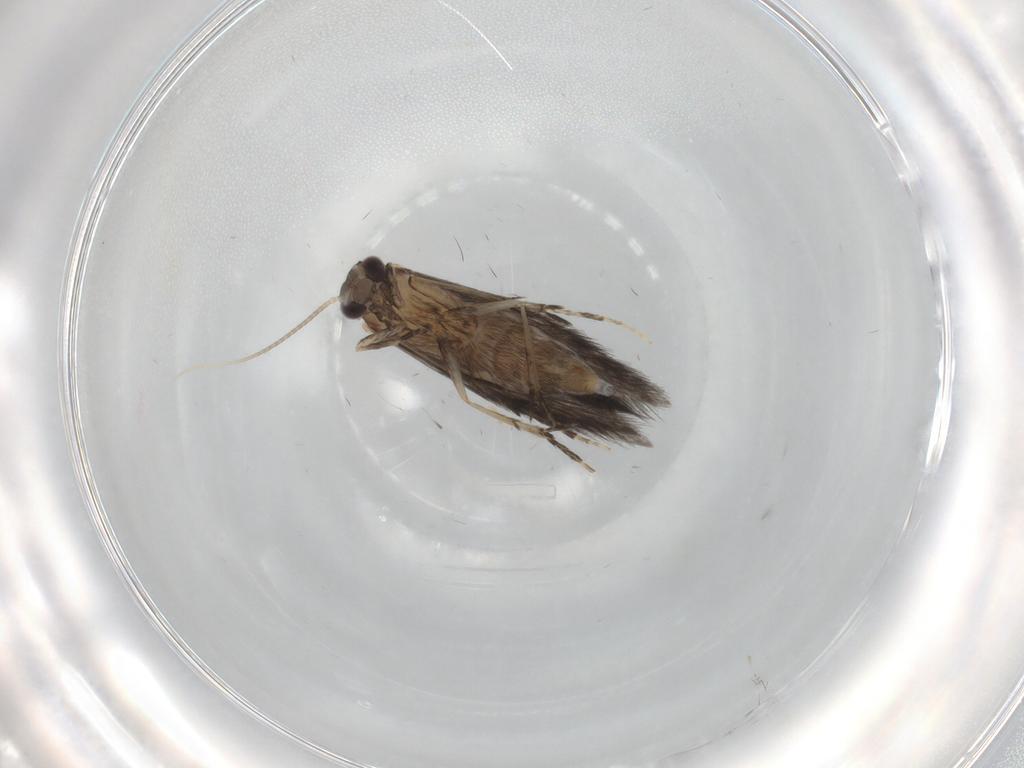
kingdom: Animalia
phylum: Arthropoda
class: Insecta
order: Trichoptera
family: Hydroptilidae
